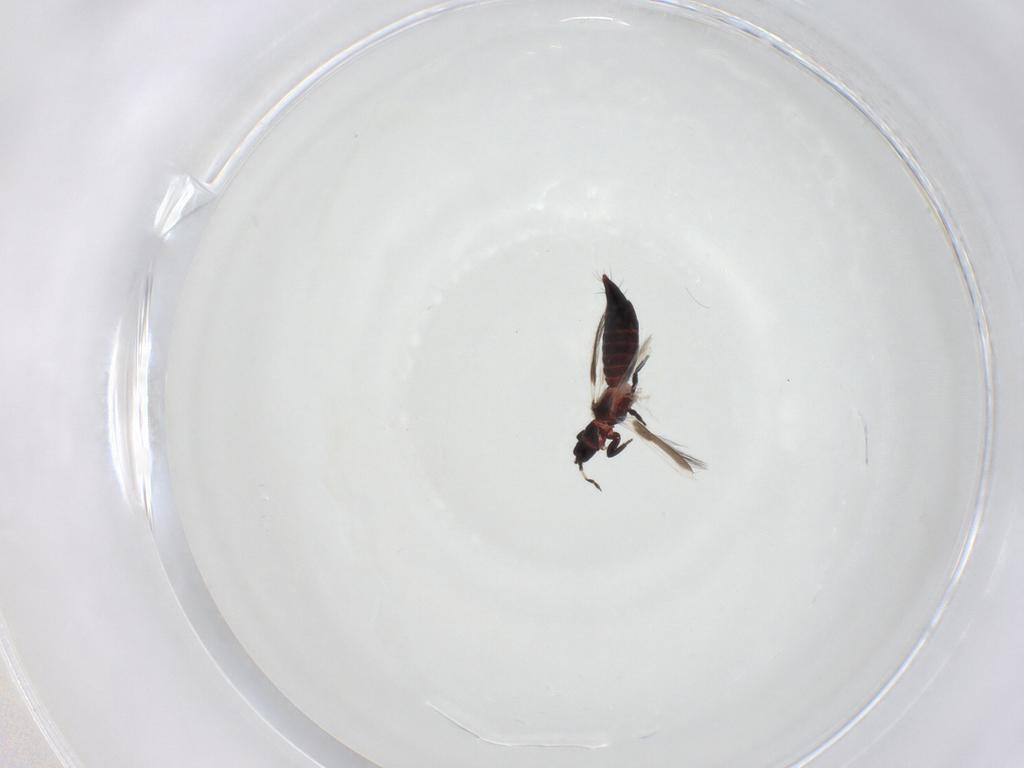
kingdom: Animalia
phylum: Arthropoda
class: Insecta
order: Thysanoptera
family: Aeolothripidae
